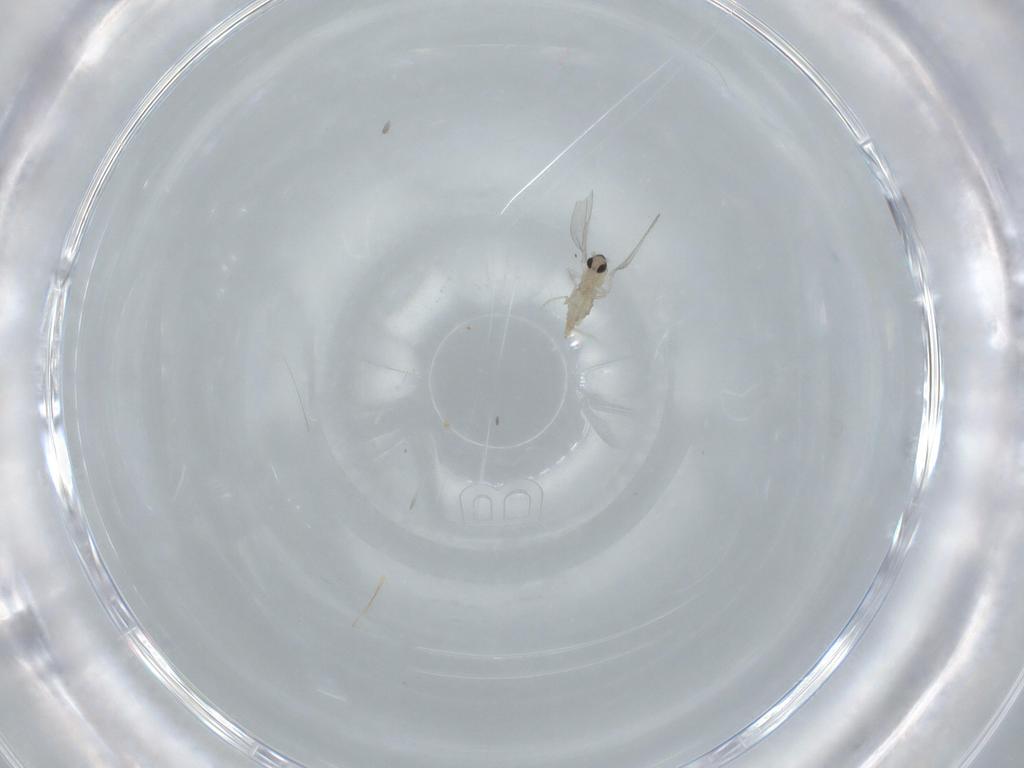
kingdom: Animalia
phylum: Arthropoda
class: Insecta
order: Diptera
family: Cecidomyiidae
